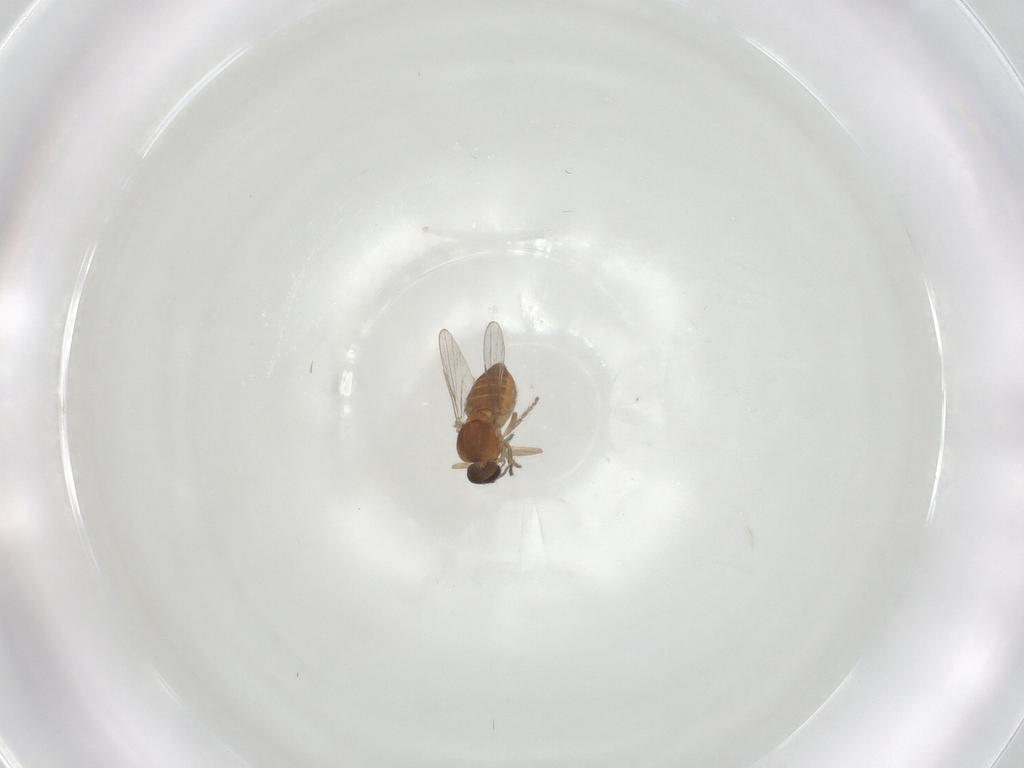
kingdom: Animalia
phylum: Arthropoda
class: Insecta
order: Diptera
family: Ceratopogonidae
